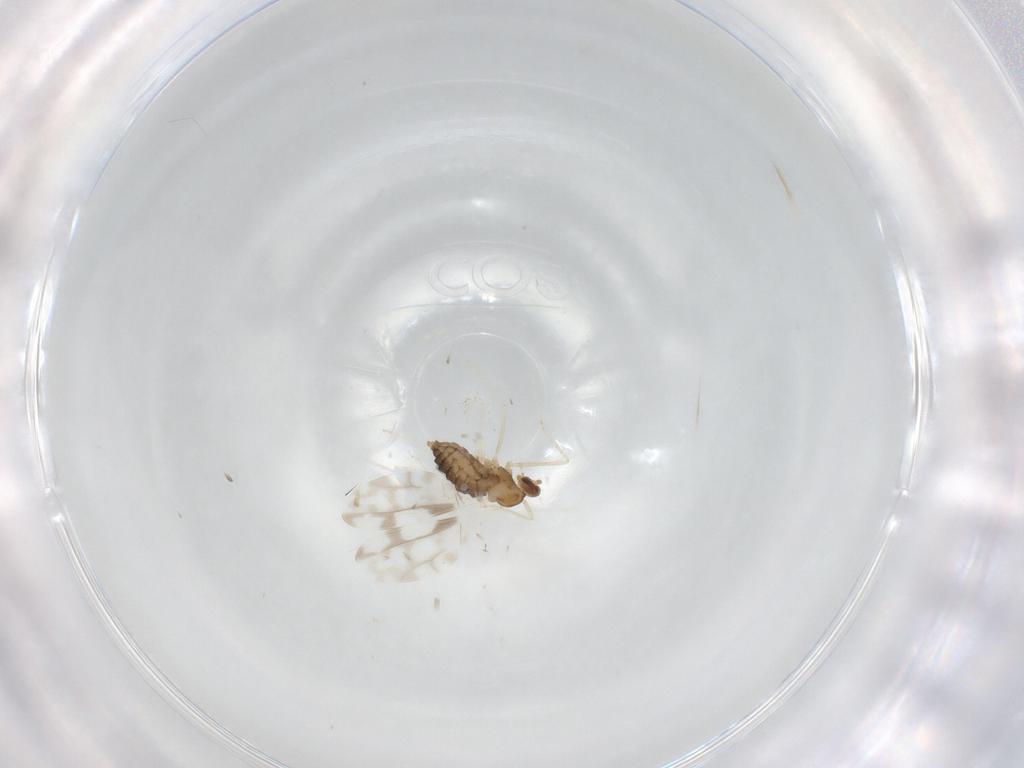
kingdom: Animalia
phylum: Arthropoda
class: Insecta
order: Diptera
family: Cecidomyiidae
